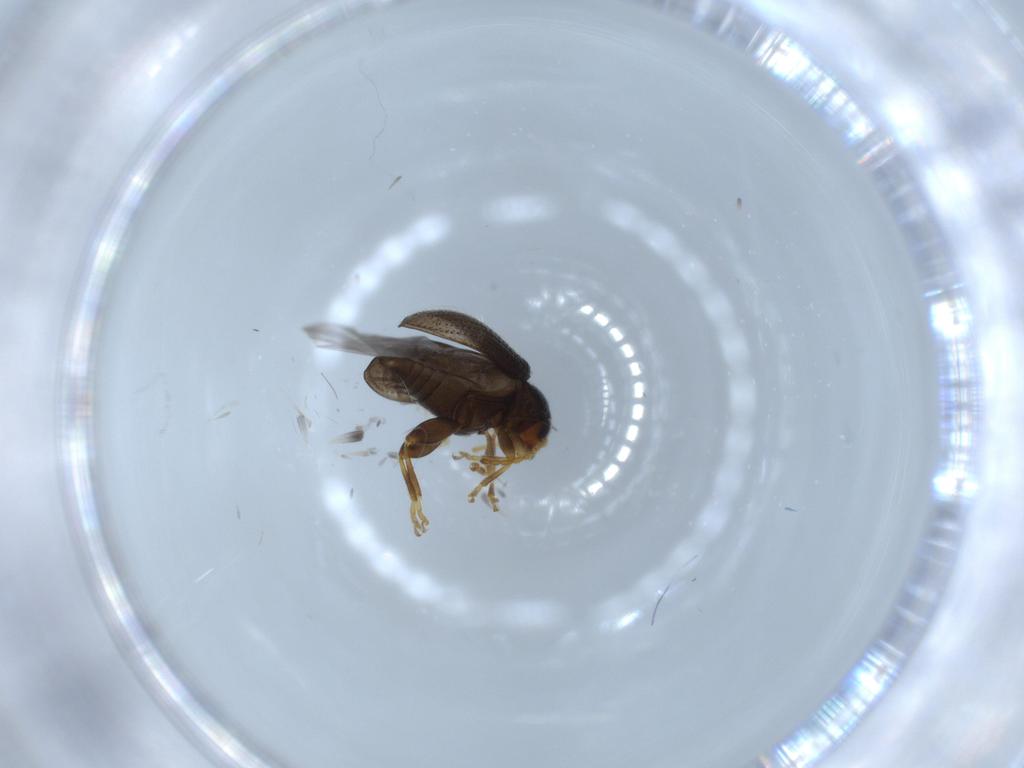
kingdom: Animalia
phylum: Arthropoda
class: Insecta
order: Coleoptera
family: Chrysomelidae
